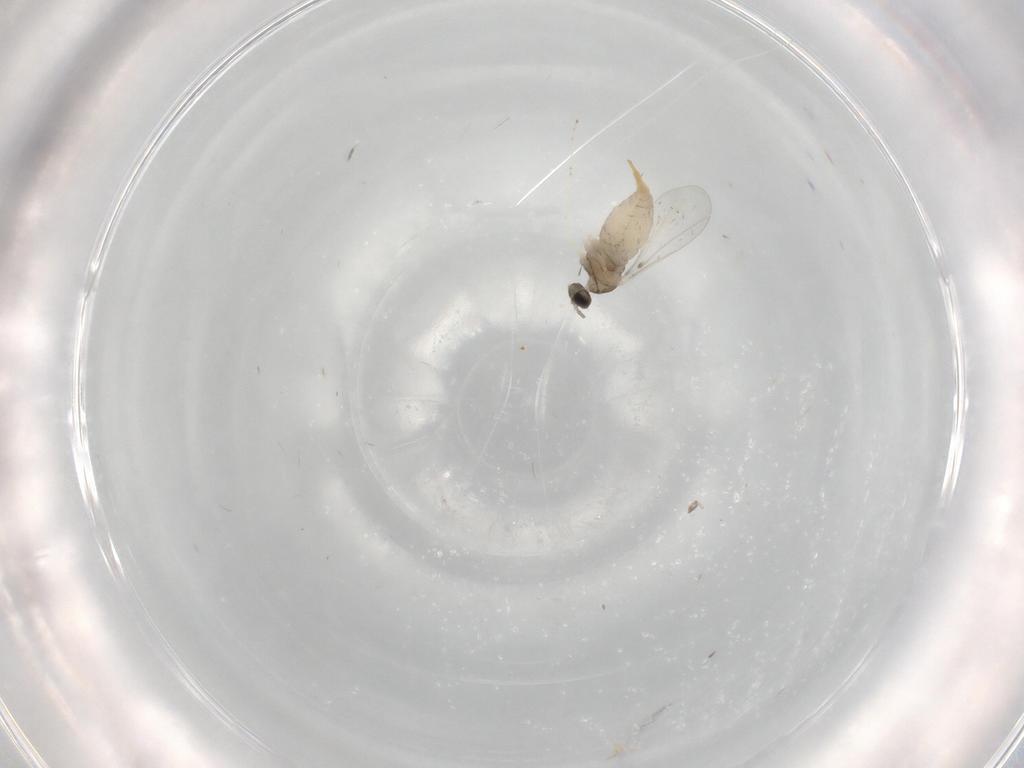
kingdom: Animalia
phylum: Arthropoda
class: Insecta
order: Diptera
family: Cecidomyiidae
